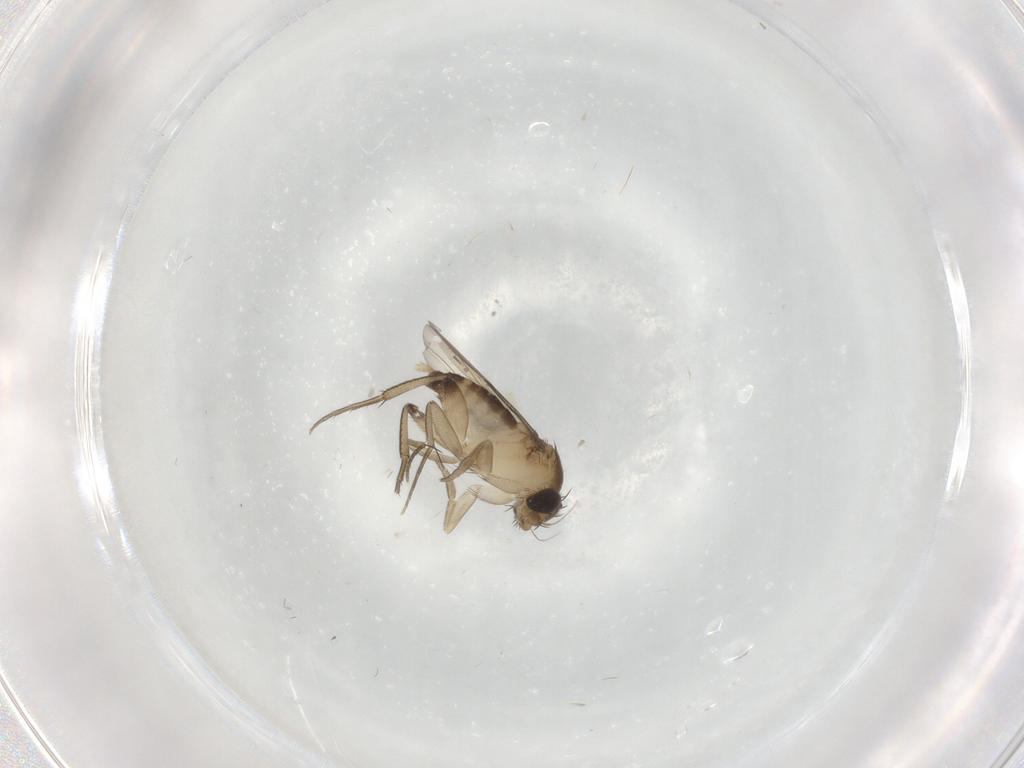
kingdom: Animalia
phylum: Arthropoda
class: Insecta
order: Diptera
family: Phoridae
